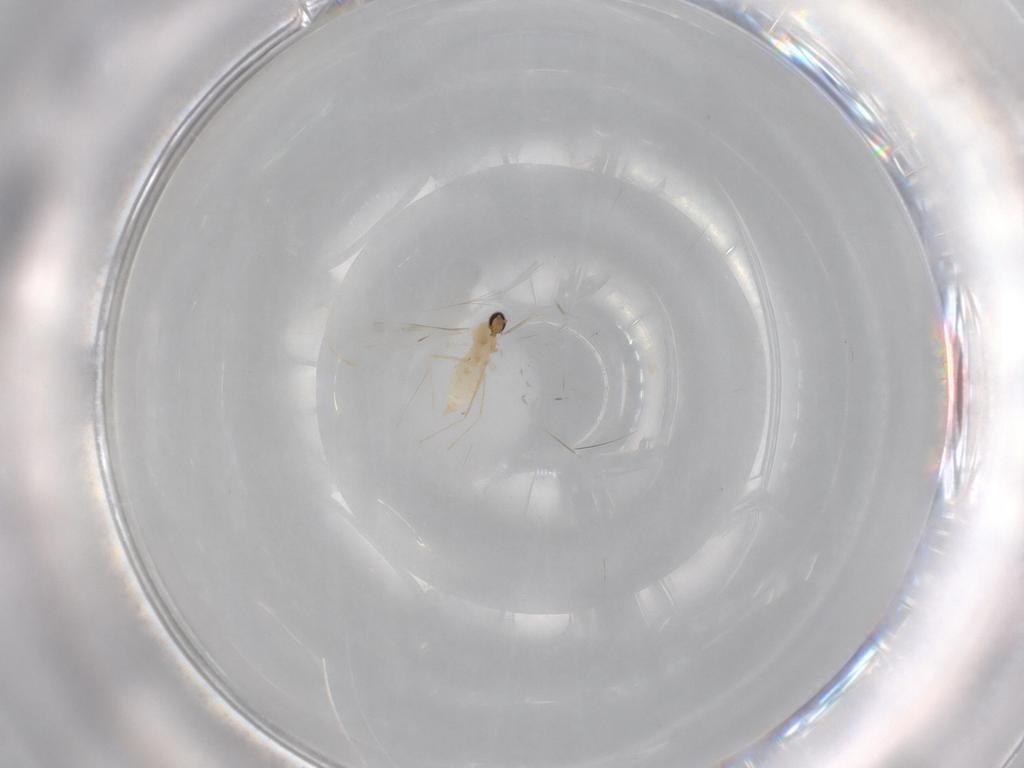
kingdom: Animalia
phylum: Arthropoda
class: Insecta
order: Diptera
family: Cecidomyiidae
